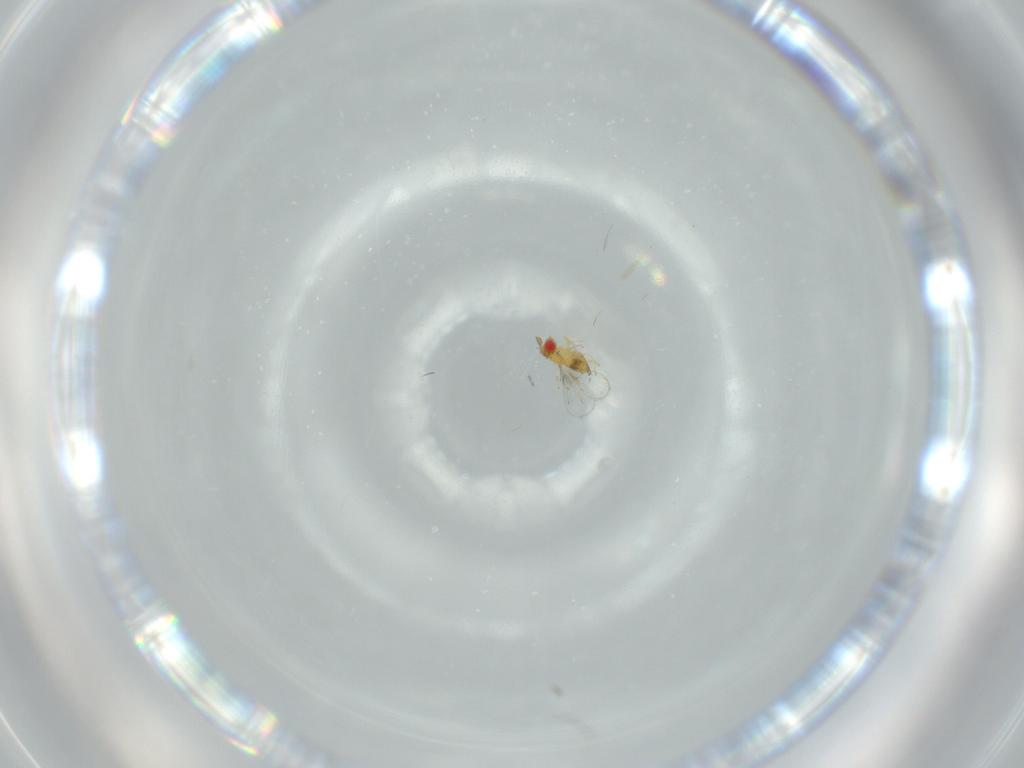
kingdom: Animalia
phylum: Arthropoda
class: Insecta
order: Hymenoptera
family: Trichogrammatidae
